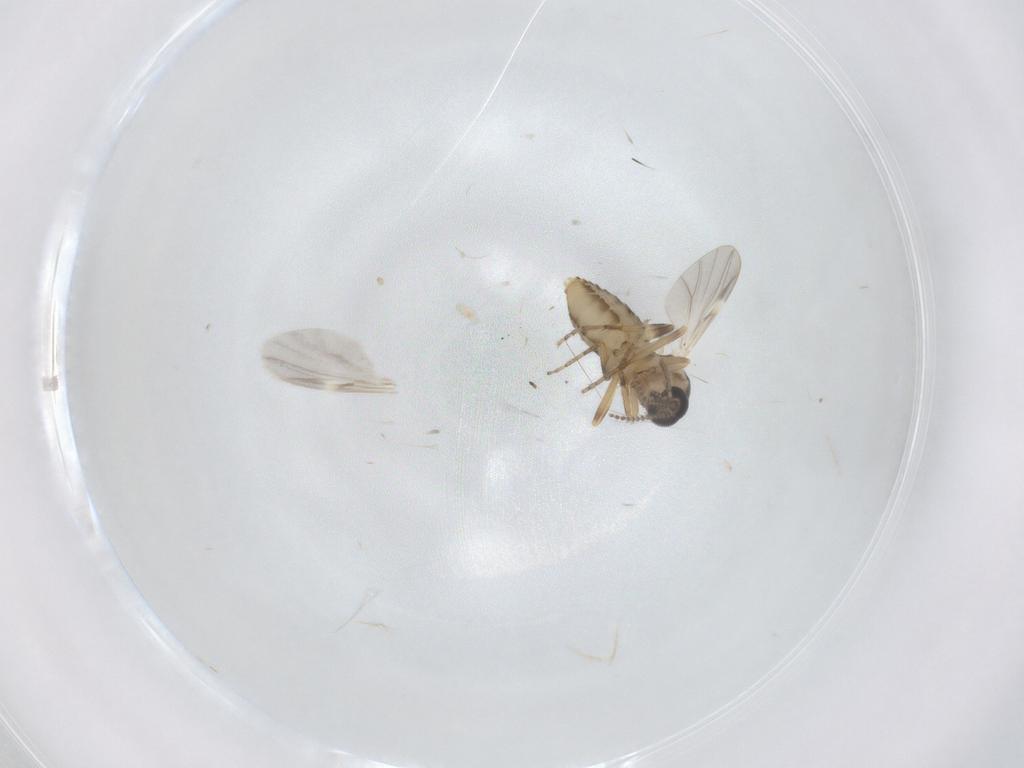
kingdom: Animalia
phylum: Arthropoda
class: Insecta
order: Diptera
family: Ceratopogonidae
